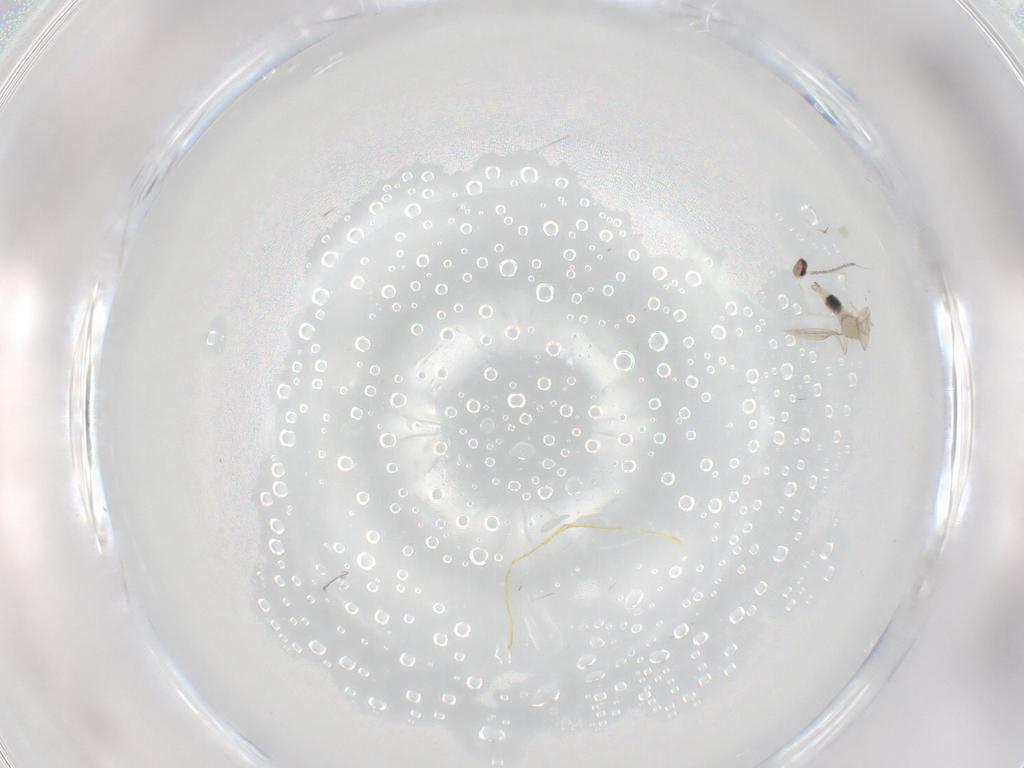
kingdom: Animalia
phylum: Arthropoda
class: Insecta
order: Diptera
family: Cecidomyiidae
